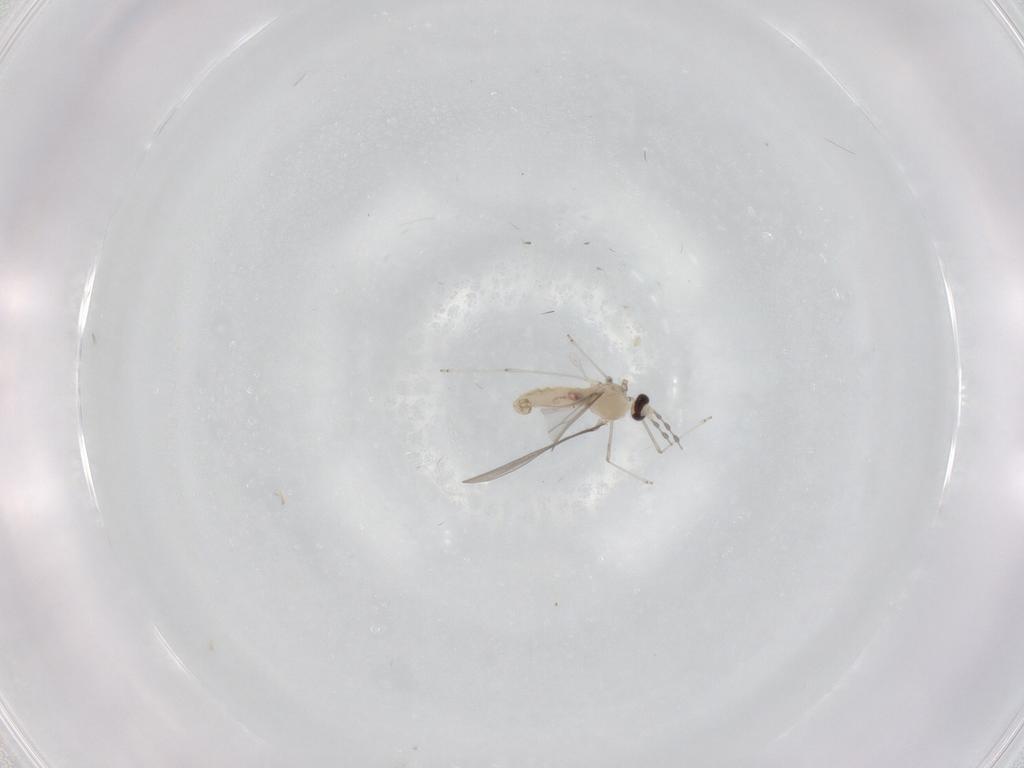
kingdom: Animalia
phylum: Arthropoda
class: Insecta
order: Diptera
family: Cecidomyiidae
